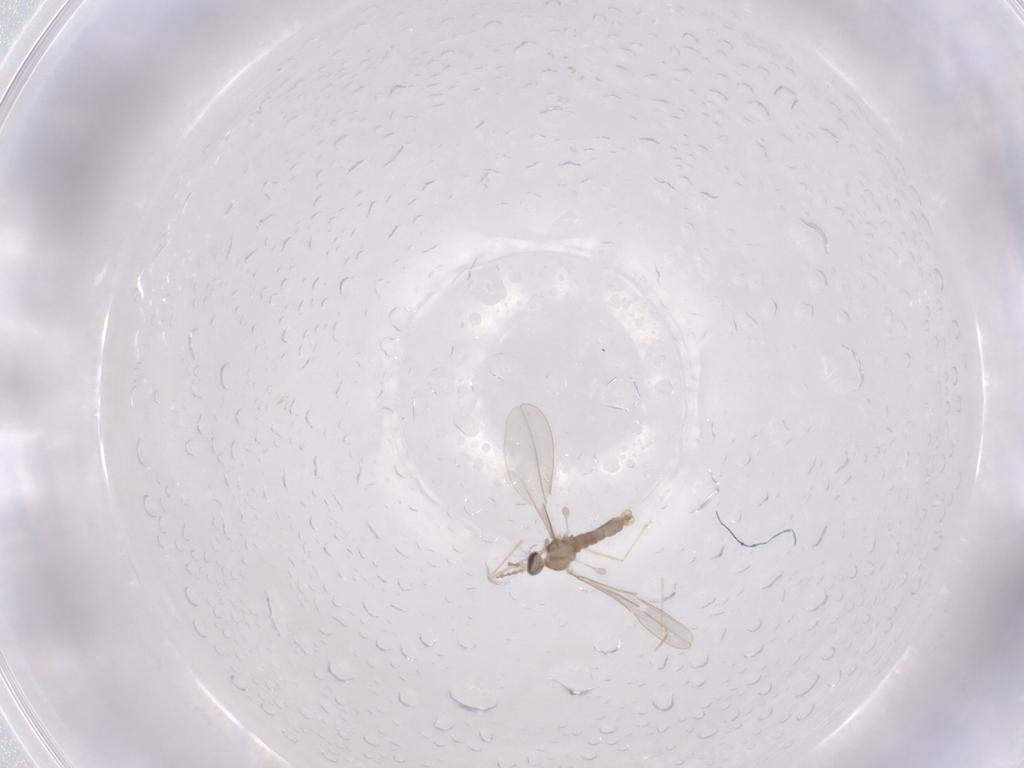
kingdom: Animalia
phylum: Arthropoda
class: Insecta
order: Diptera
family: Cecidomyiidae
